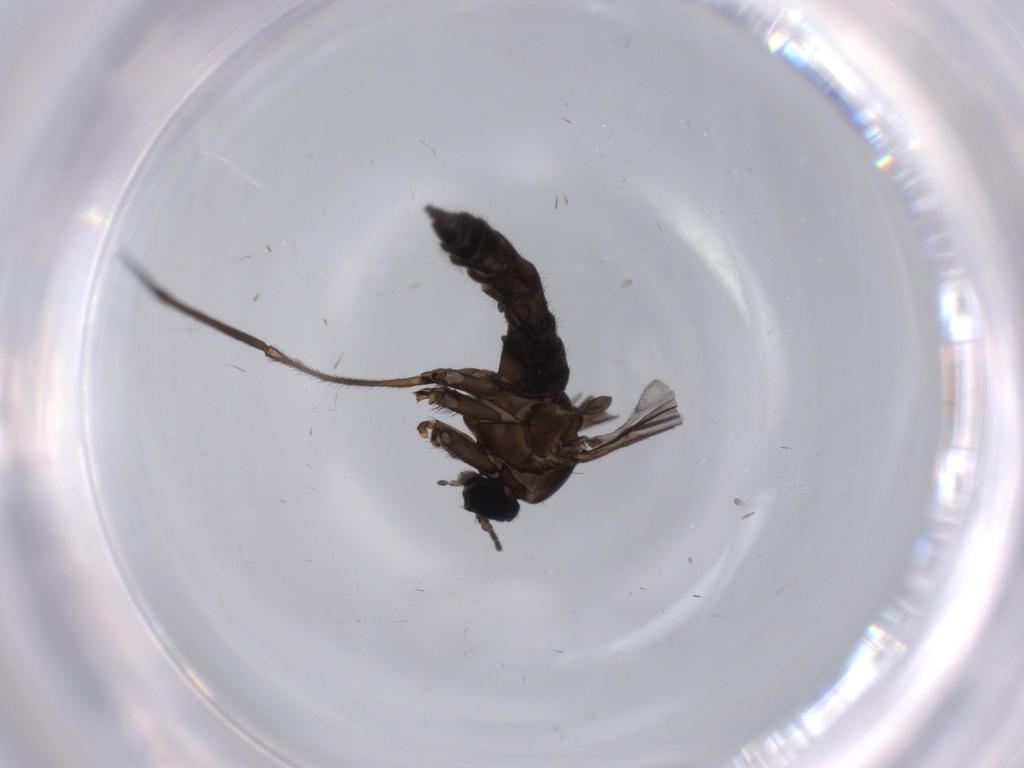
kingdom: Animalia
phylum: Arthropoda
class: Insecta
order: Diptera
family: Sciaridae
